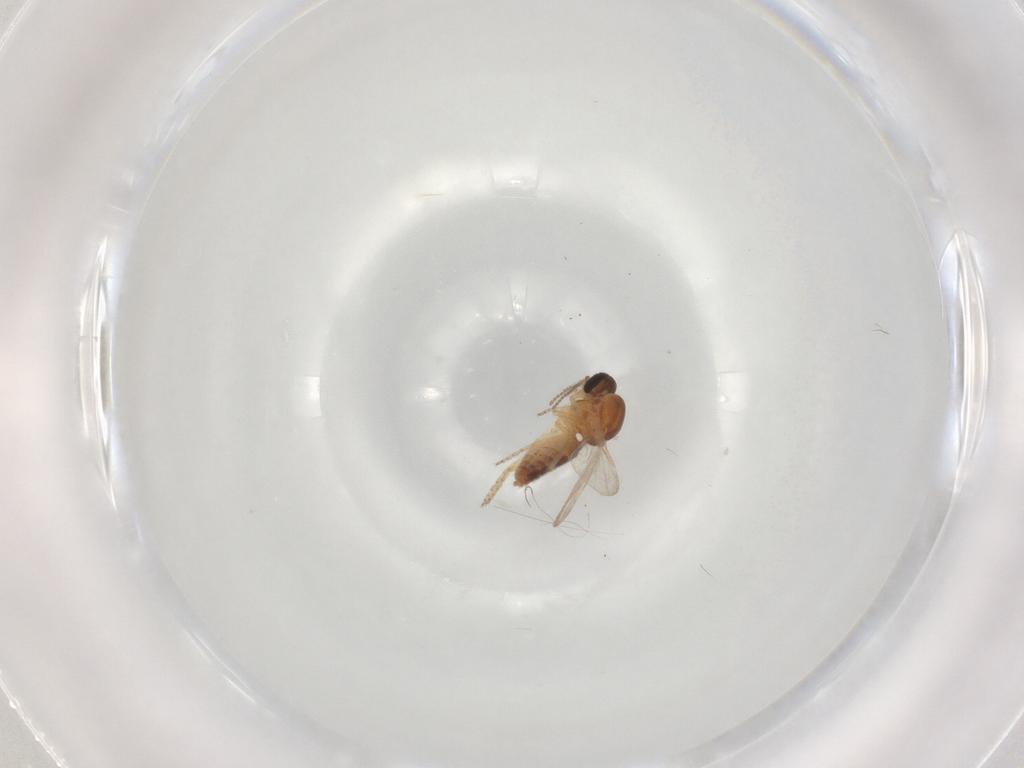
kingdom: Animalia
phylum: Arthropoda
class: Insecta
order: Diptera
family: Ceratopogonidae
